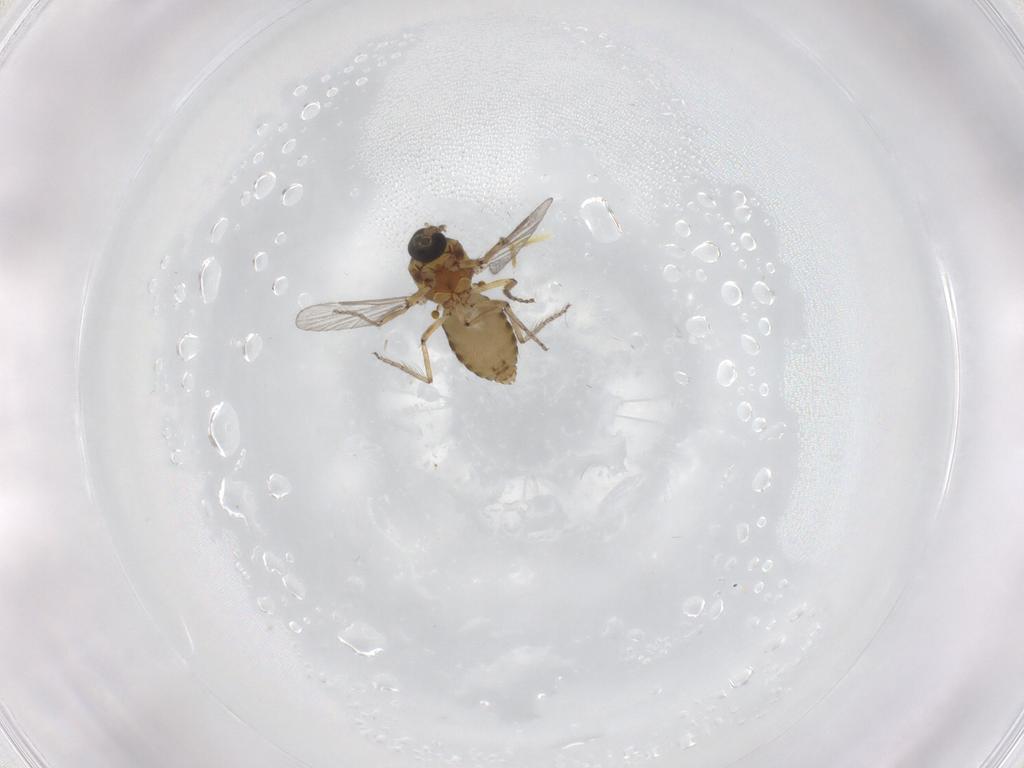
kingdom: Animalia
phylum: Arthropoda
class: Insecta
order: Diptera
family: Ceratopogonidae
